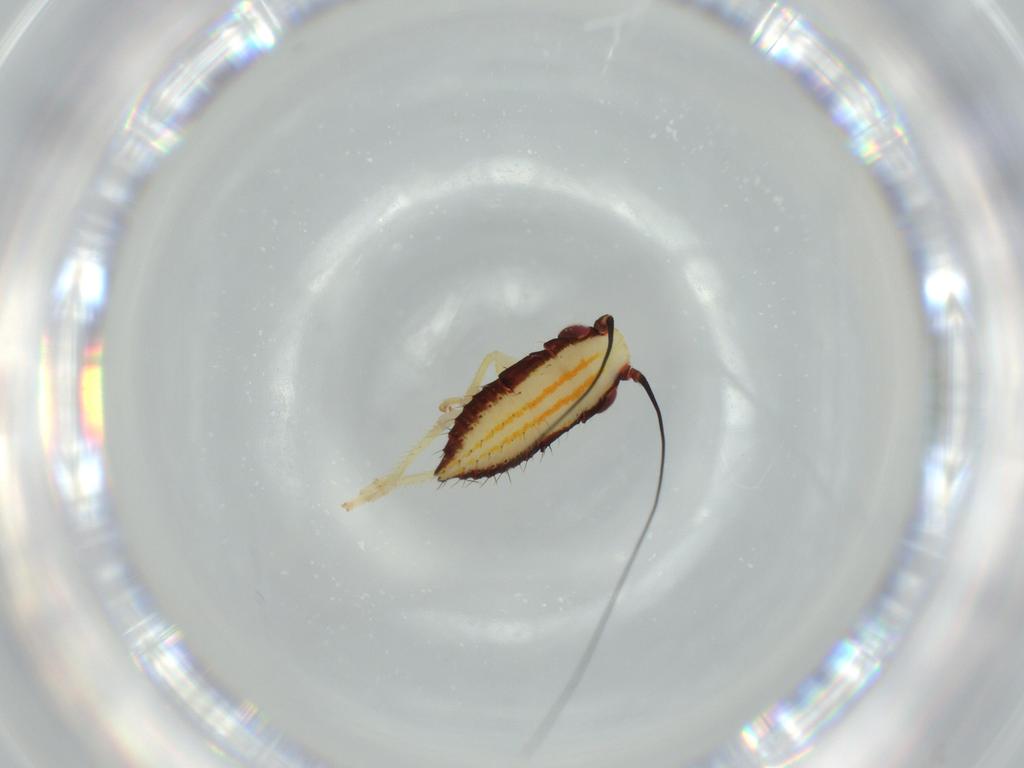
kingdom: Animalia
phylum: Arthropoda
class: Insecta
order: Hemiptera
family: Cicadellidae
